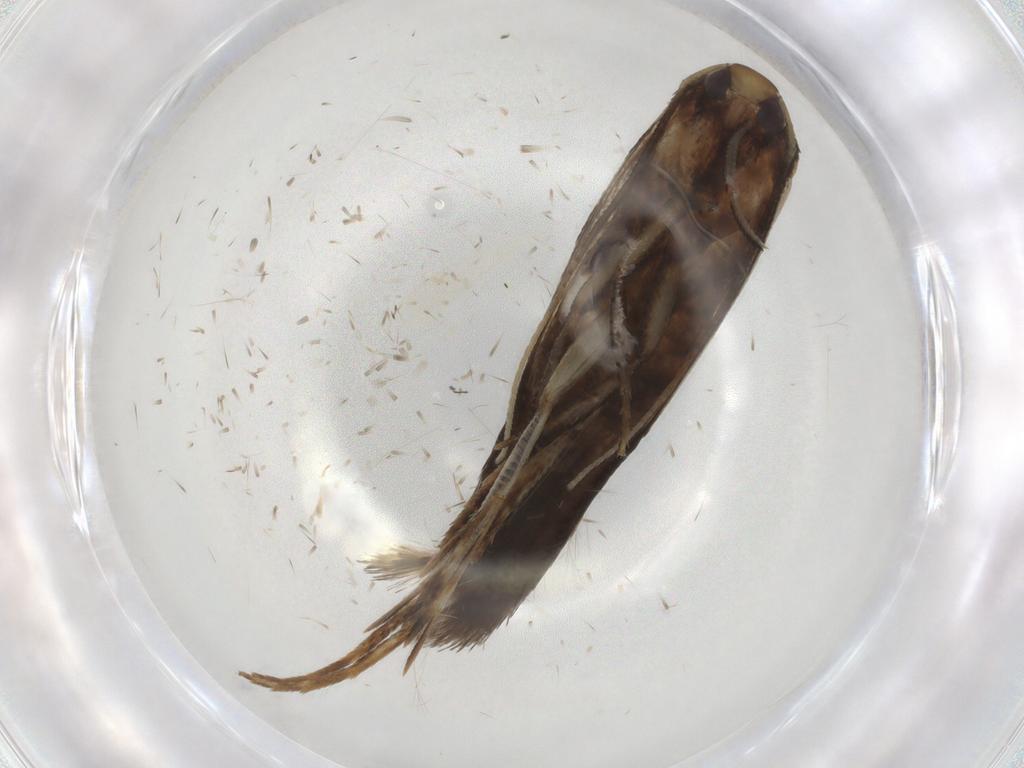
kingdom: Animalia
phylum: Arthropoda
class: Insecta
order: Lepidoptera
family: Cosmopterigidae
